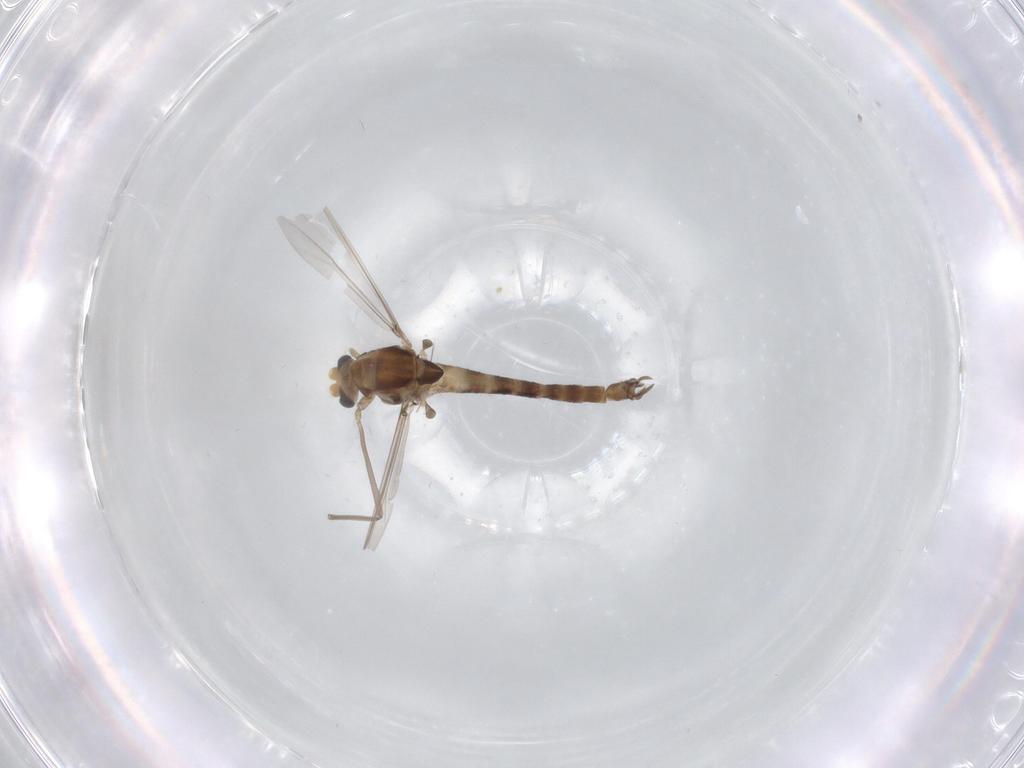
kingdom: Animalia
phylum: Arthropoda
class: Insecta
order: Diptera
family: Chironomidae
